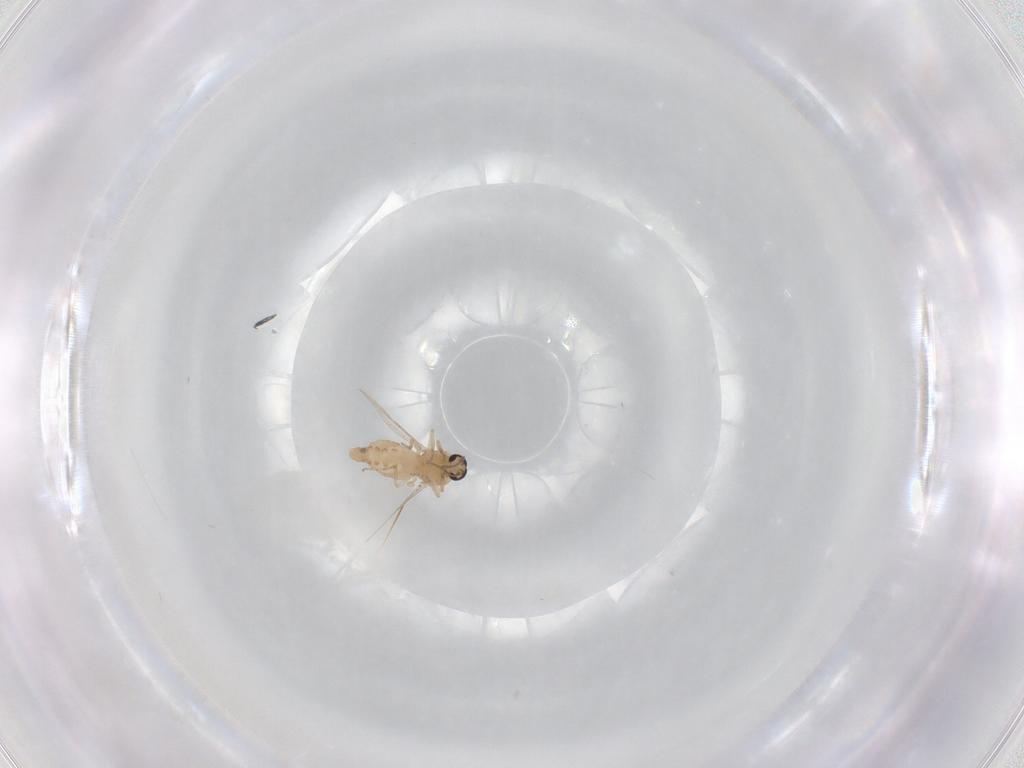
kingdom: Animalia
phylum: Arthropoda
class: Insecta
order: Diptera
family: Ceratopogonidae
